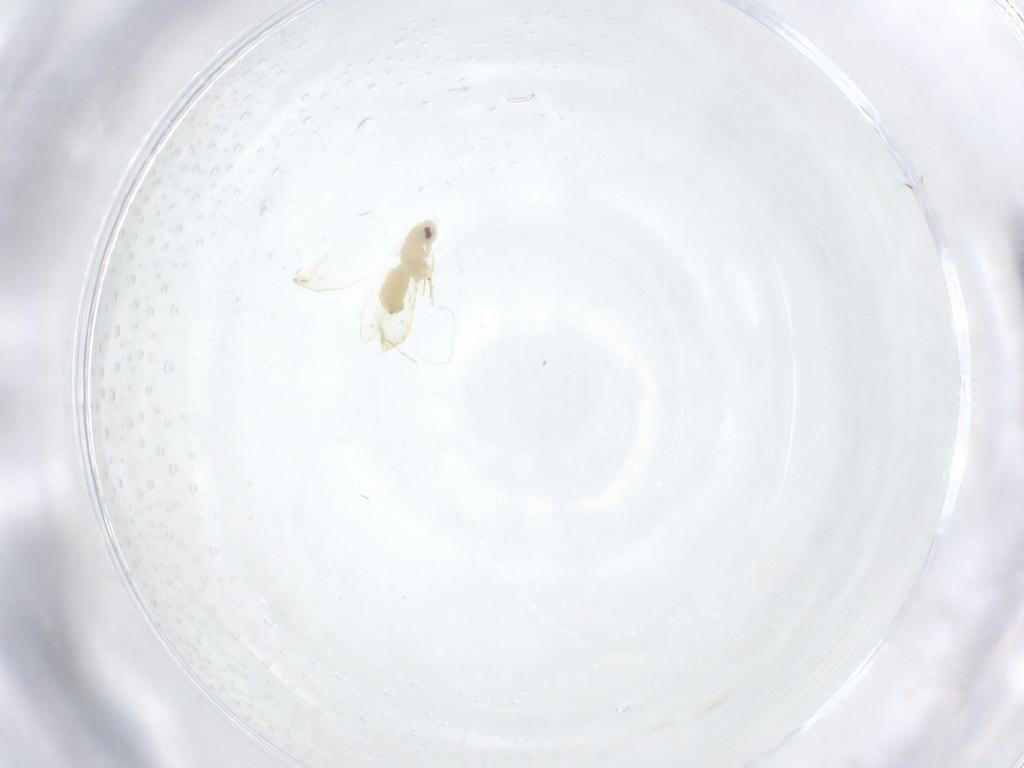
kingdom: Animalia
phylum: Arthropoda
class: Insecta
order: Hemiptera
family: Aleyrodidae
